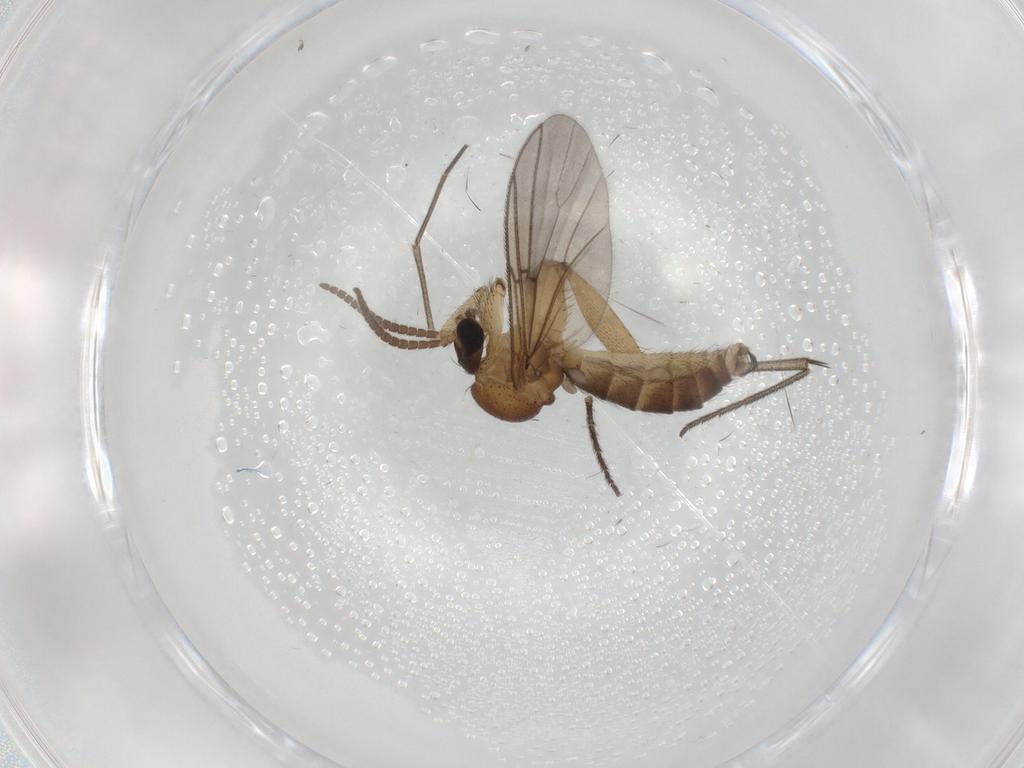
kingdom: Animalia
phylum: Arthropoda
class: Insecta
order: Diptera
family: Mycetophilidae
